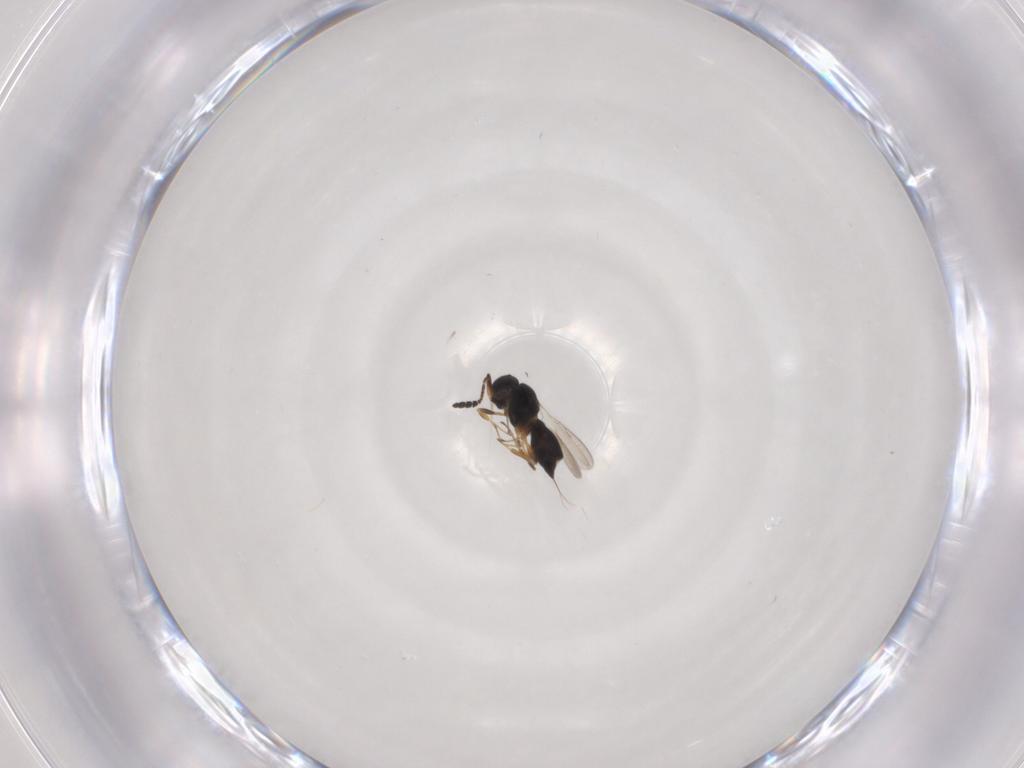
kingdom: Animalia
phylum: Arthropoda
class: Insecta
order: Hymenoptera
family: Scelionidae
